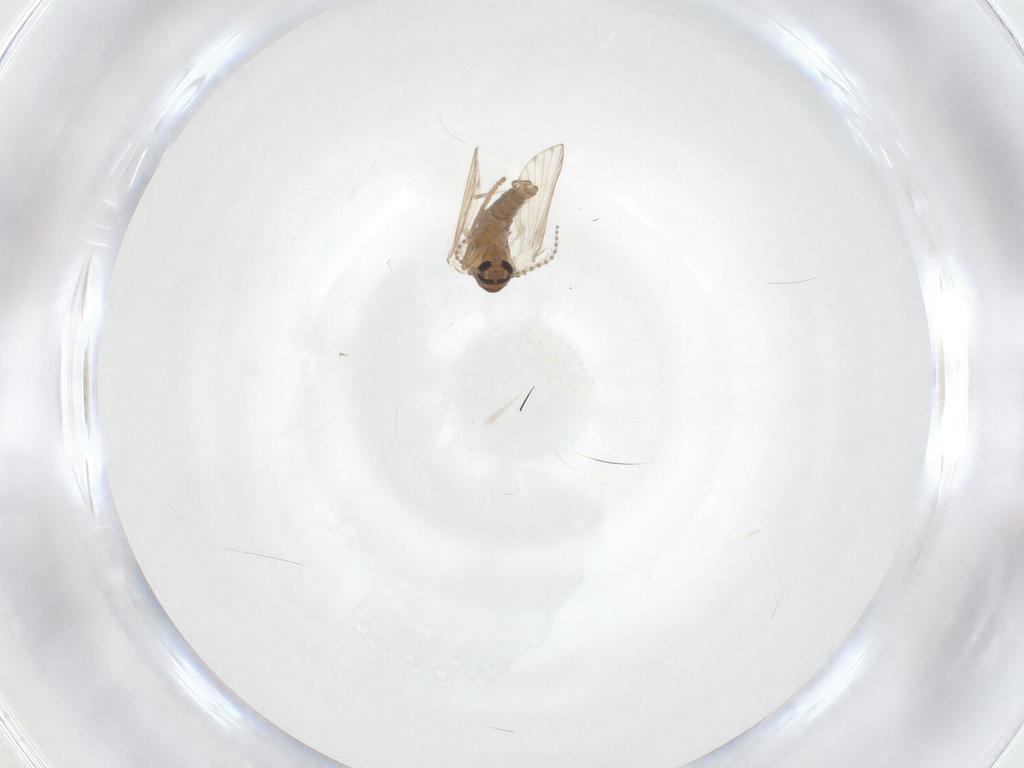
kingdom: Animalia
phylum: Arthropoda
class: Insecta
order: Diptera
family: Psychodidae
